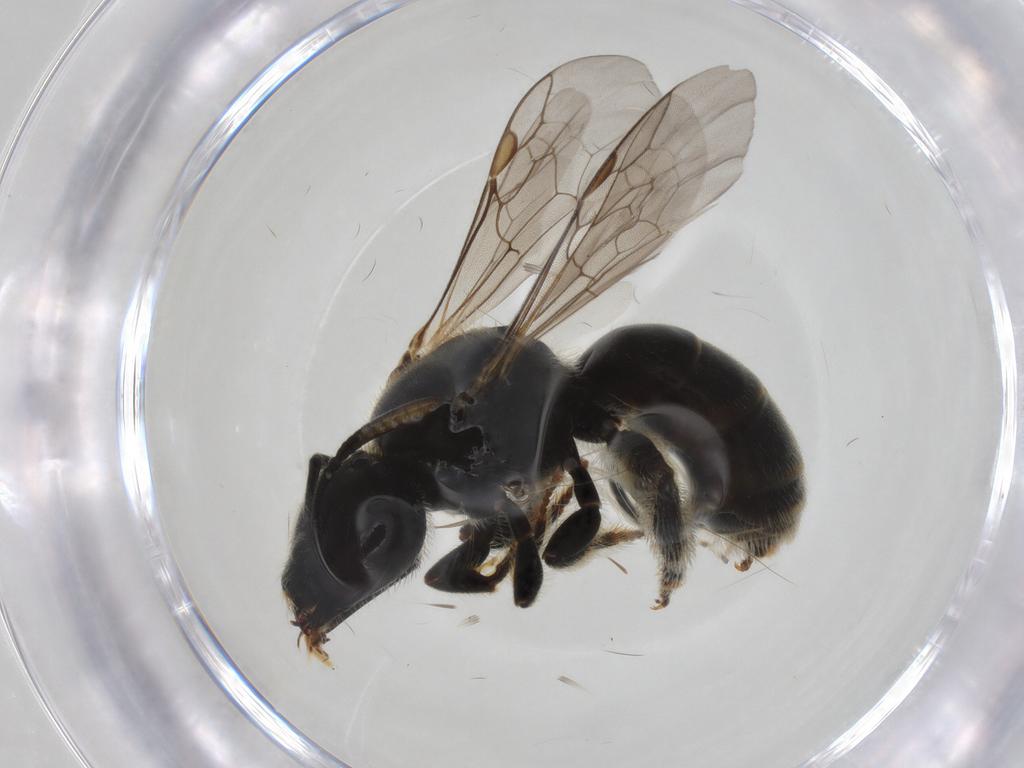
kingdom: Animalia
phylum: Arthropoda
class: Insecta
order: Hymenoptera
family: Halictidae
